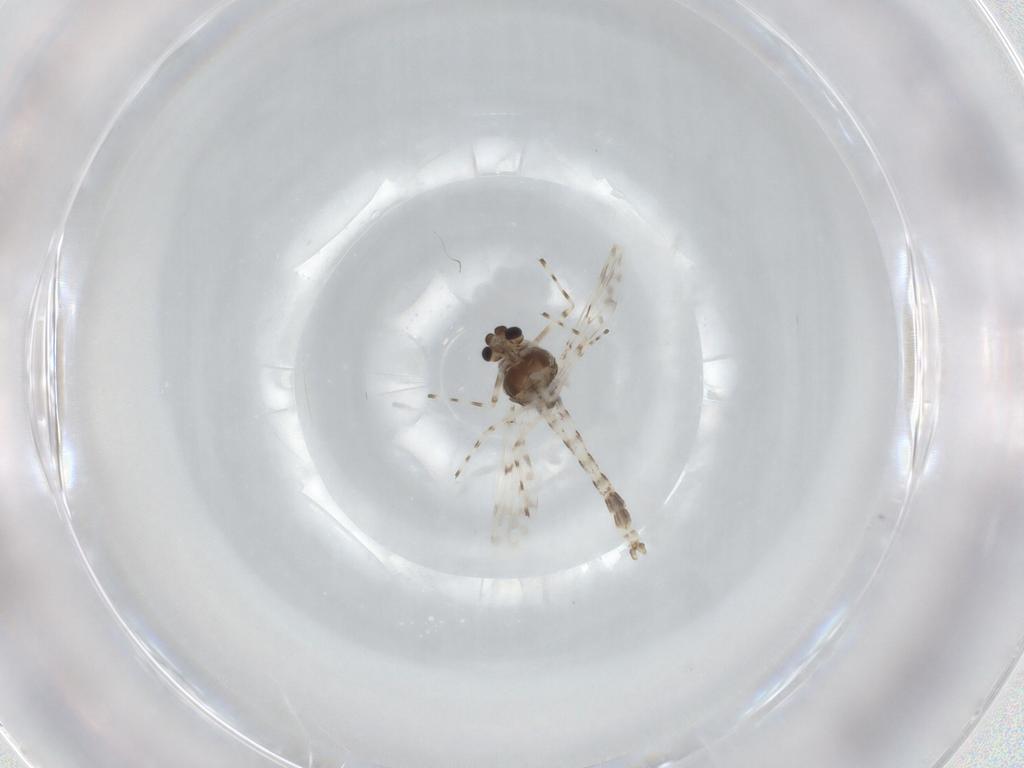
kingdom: Animalia
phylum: Arthropoda
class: Insecta
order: Diptera
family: Chironomidae
